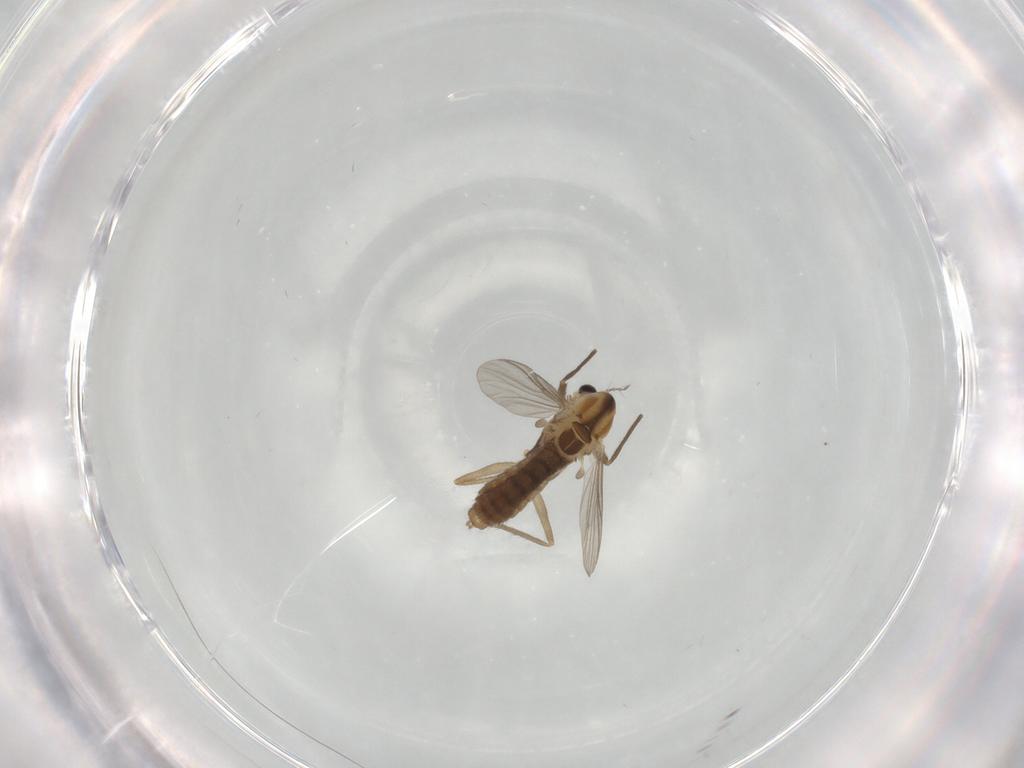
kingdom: Animalia
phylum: Arthropoda
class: Insecta
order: Diptera
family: Chironomidae
